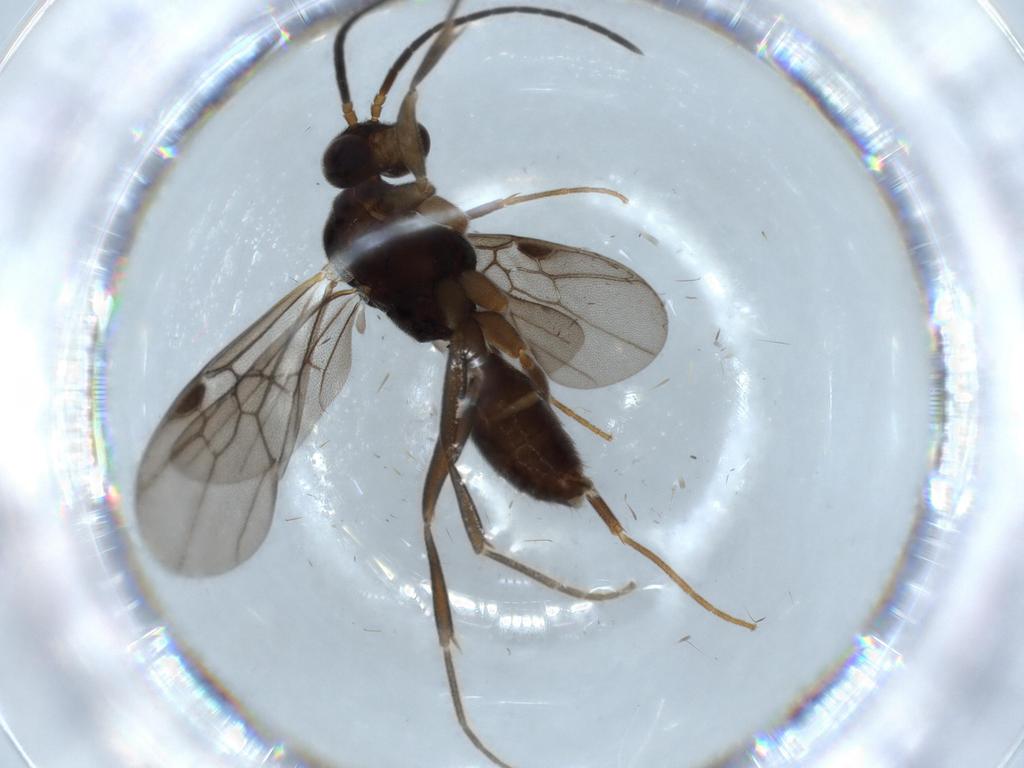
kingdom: Animalia
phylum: Arthropoda
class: Insecta
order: Hymenoptera
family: Formicidae
